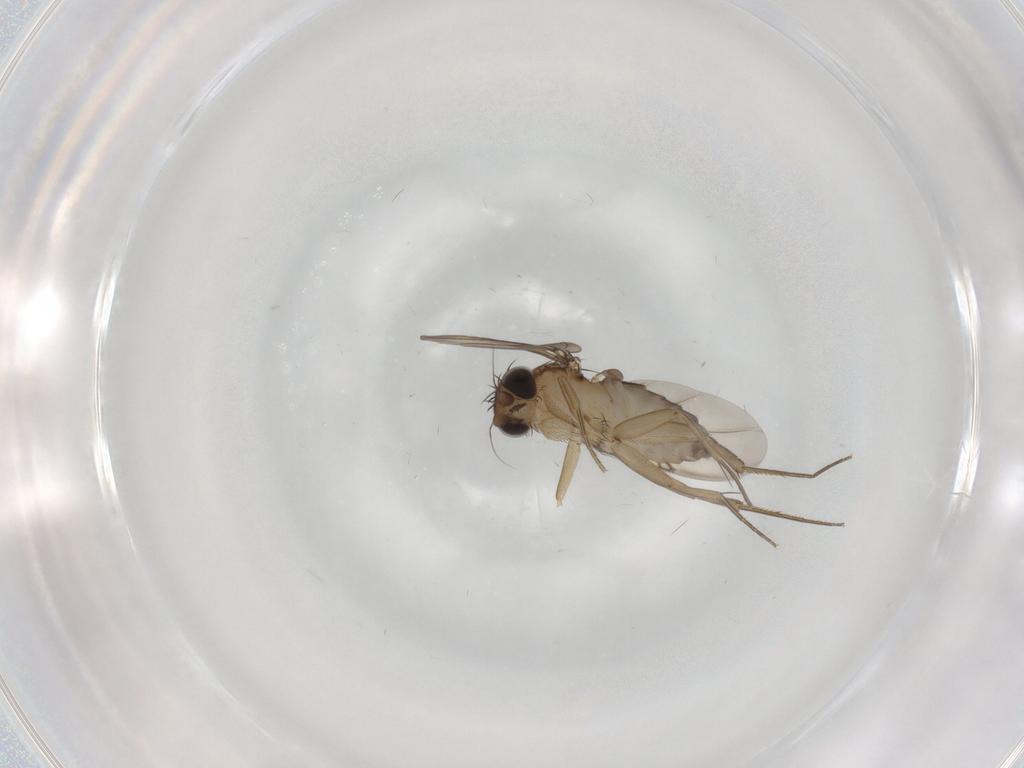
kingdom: Animalia
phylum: Arthropoda
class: Insecta
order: Diptera
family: Phoridae
